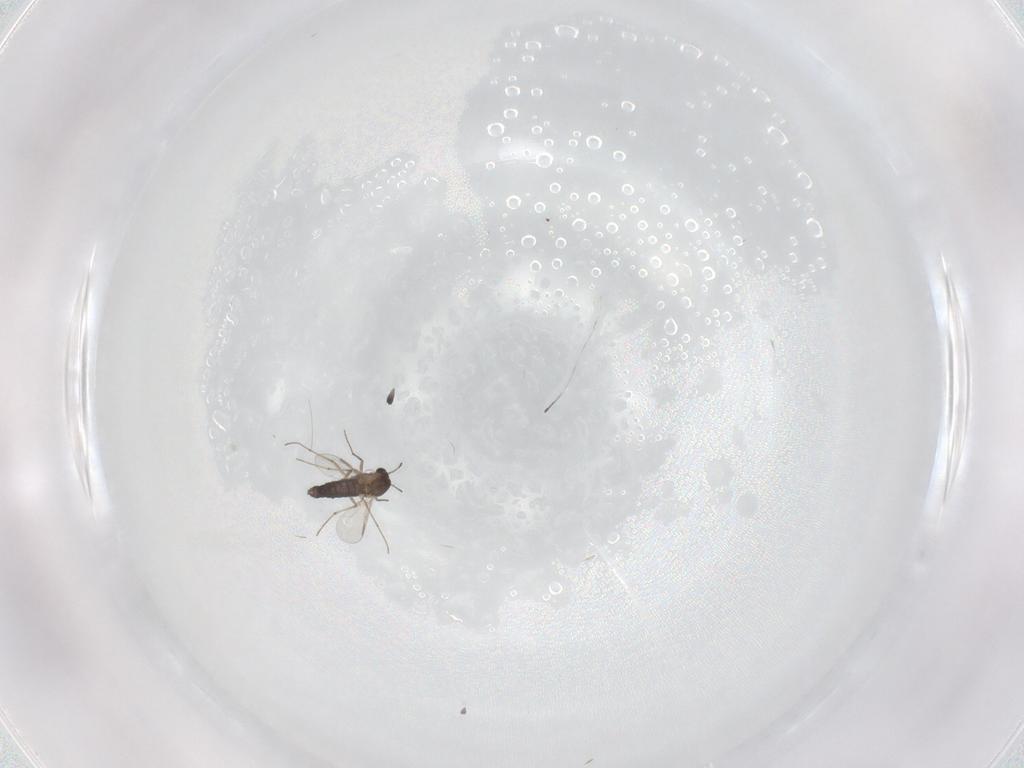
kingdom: Animalia
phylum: Arthropoda
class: Insecta
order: Diptera
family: Chironomidae
